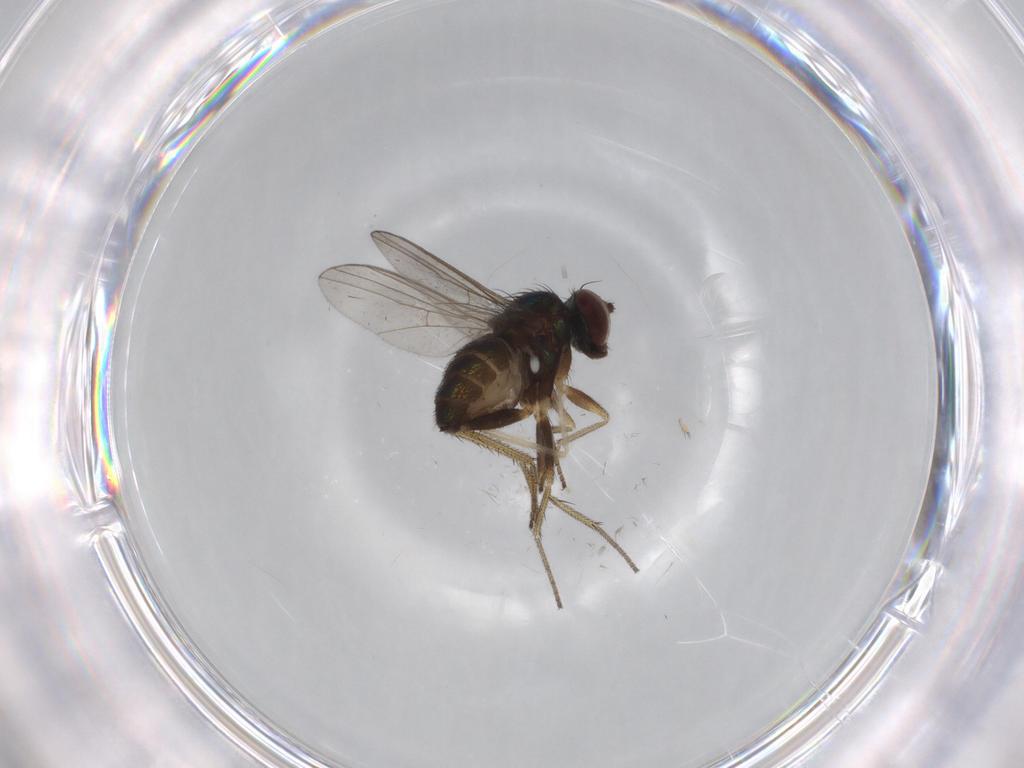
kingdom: Animalia
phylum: Arthropoda
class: Insecta
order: Diptera
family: Dolichopodidae
